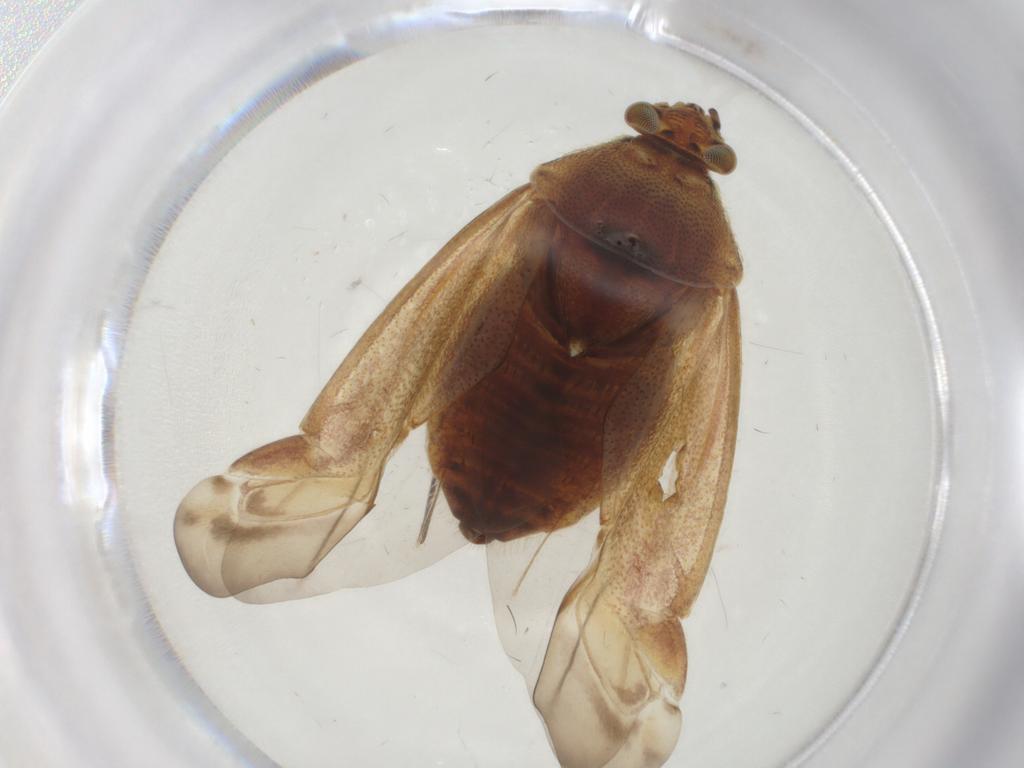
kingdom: Animalia
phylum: Arthropoda
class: Insecta
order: Hemiptera
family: Miridae
